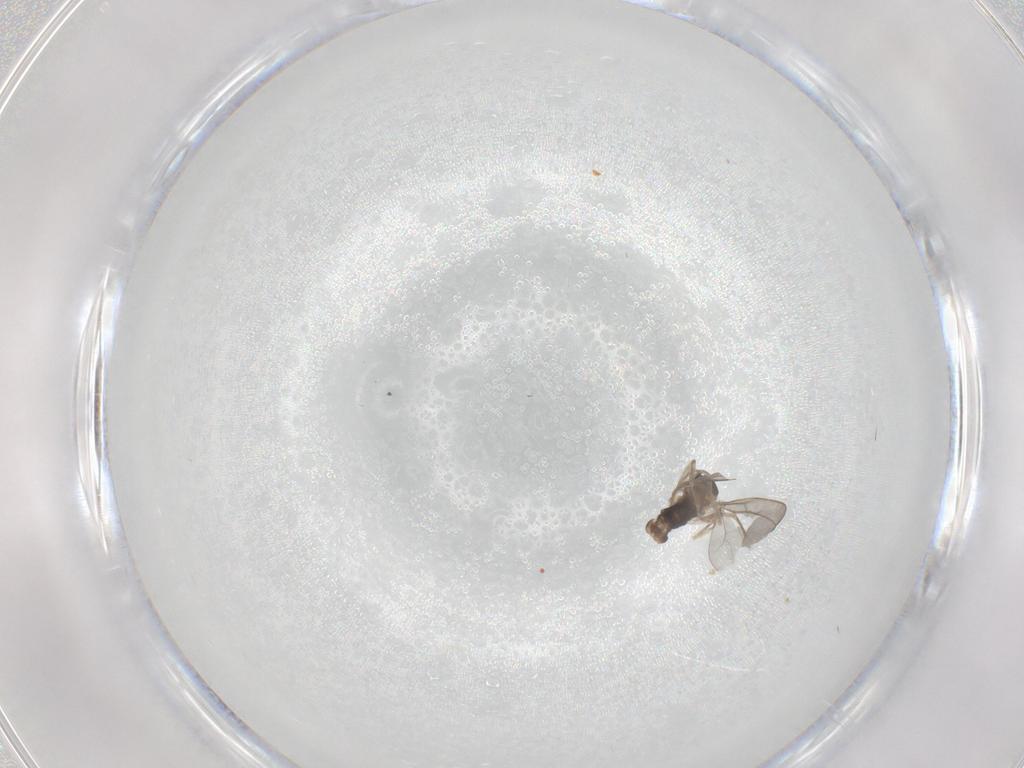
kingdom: Animalia
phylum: Arthropoda
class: Insecta
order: Diptera
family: Cecidomyiidae
